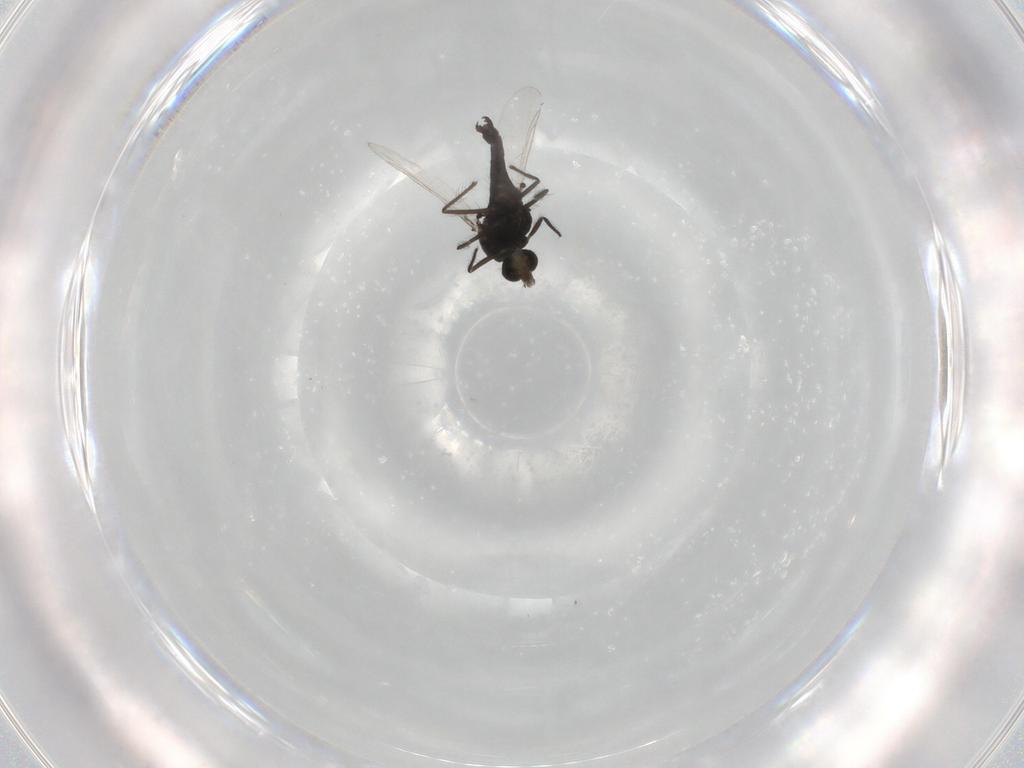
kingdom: Animalia
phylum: Arthropoda
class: Insecta
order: Diptera
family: Chironomidae
